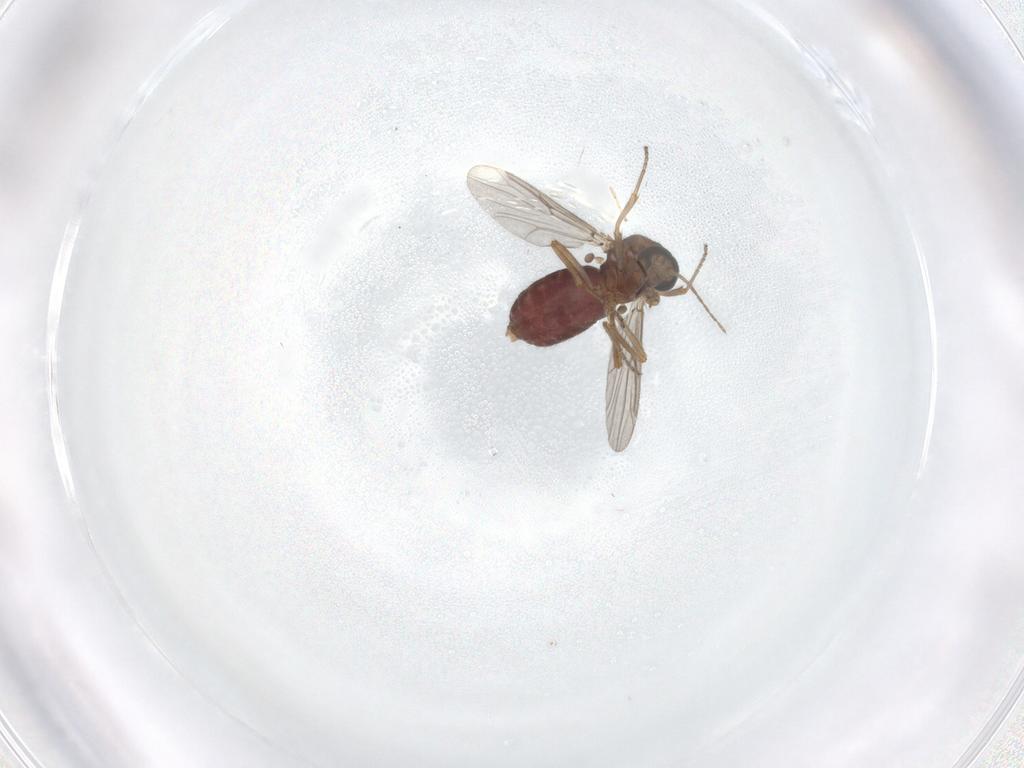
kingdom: Animalia
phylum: Arthropoda
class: Insecta
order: Diptera
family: Ceratopogonidae
